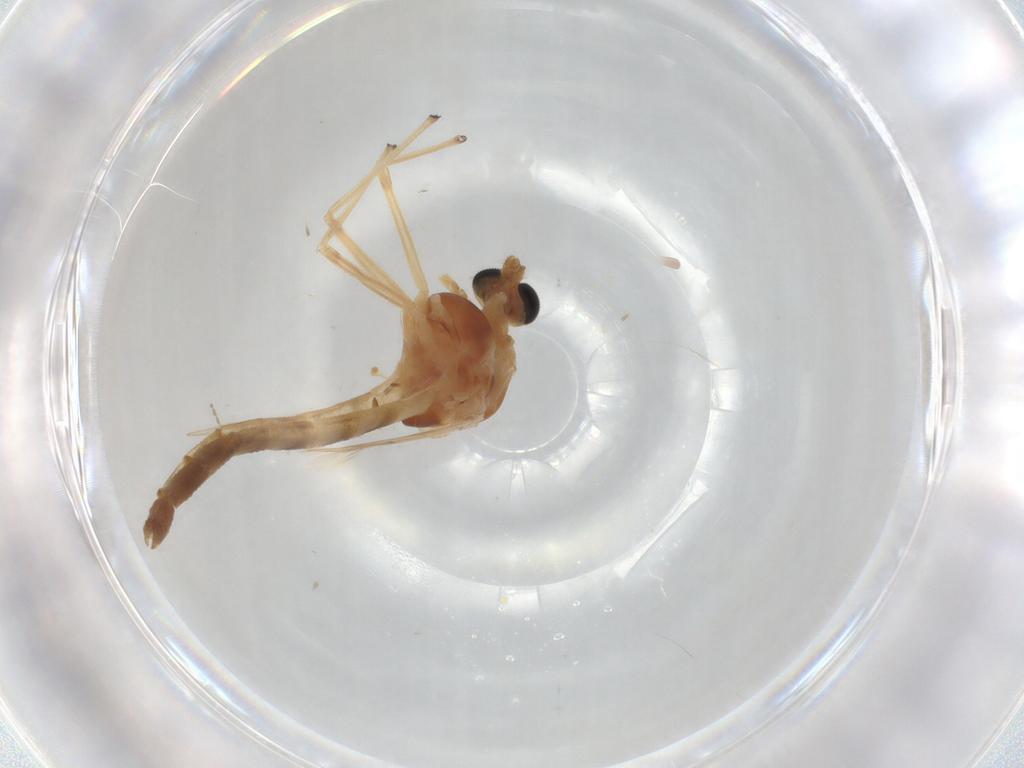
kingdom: Animalia
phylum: Arthropoda
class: Insecta
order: Diptera
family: Chironomidae
